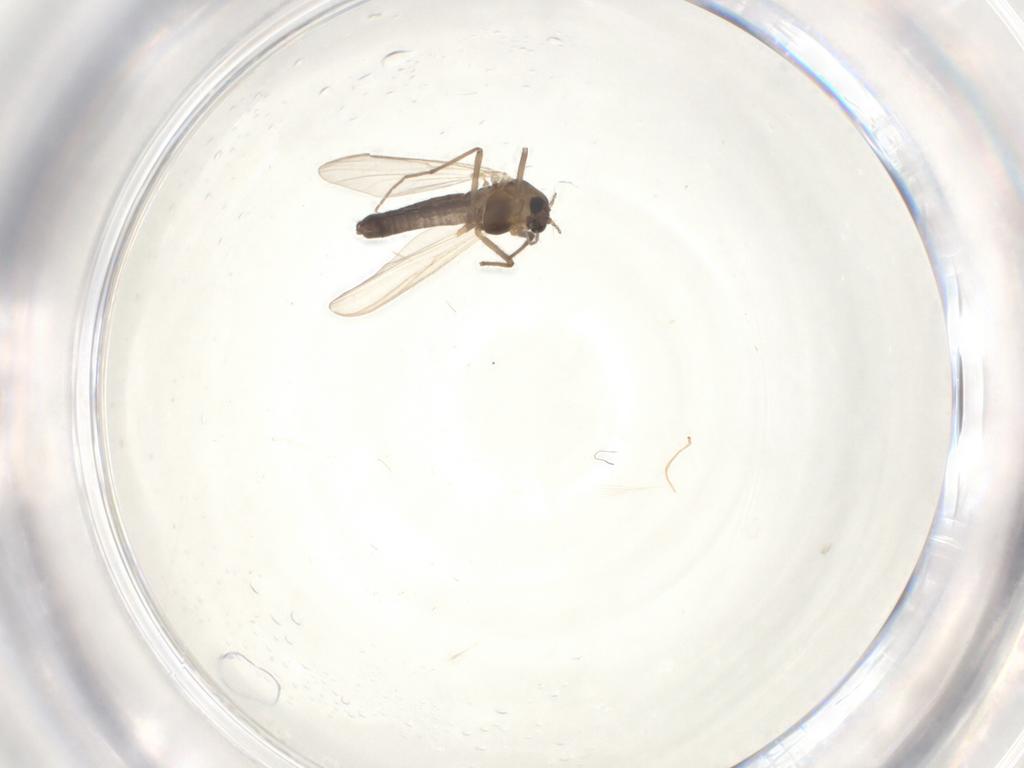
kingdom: Animalia
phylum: Arthropoda
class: Insecta
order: Diptera
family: Chironomidae
